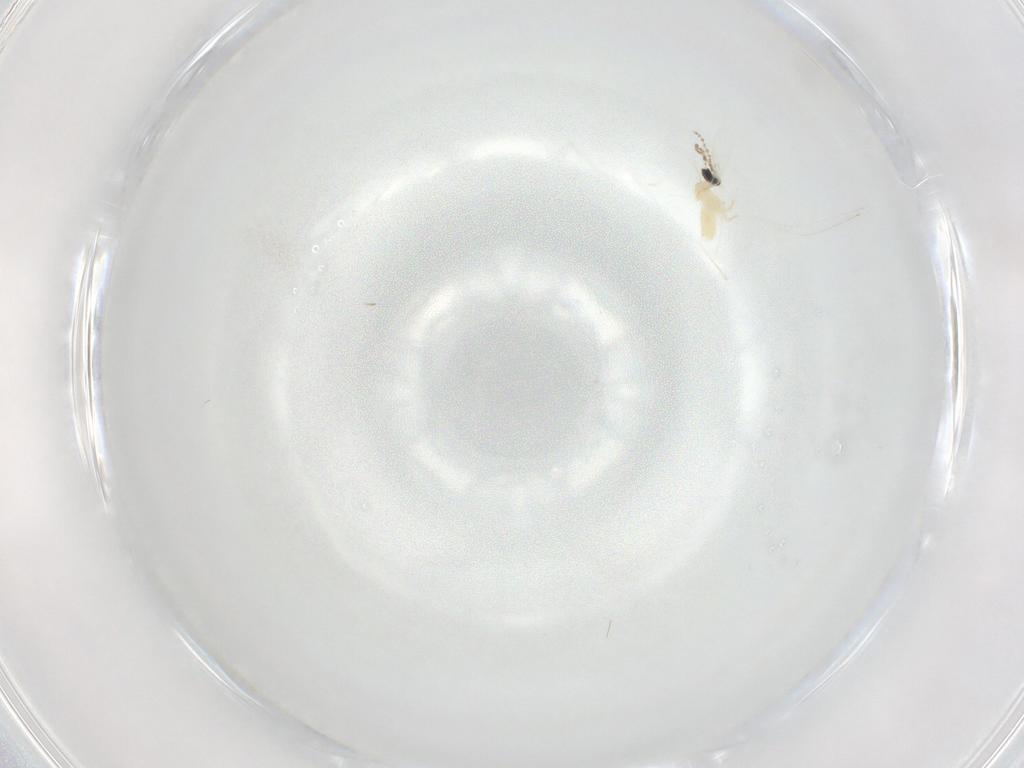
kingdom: Animalia
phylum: Arthropoda
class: Insecta
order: Diptera
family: Cecidomyiidae
